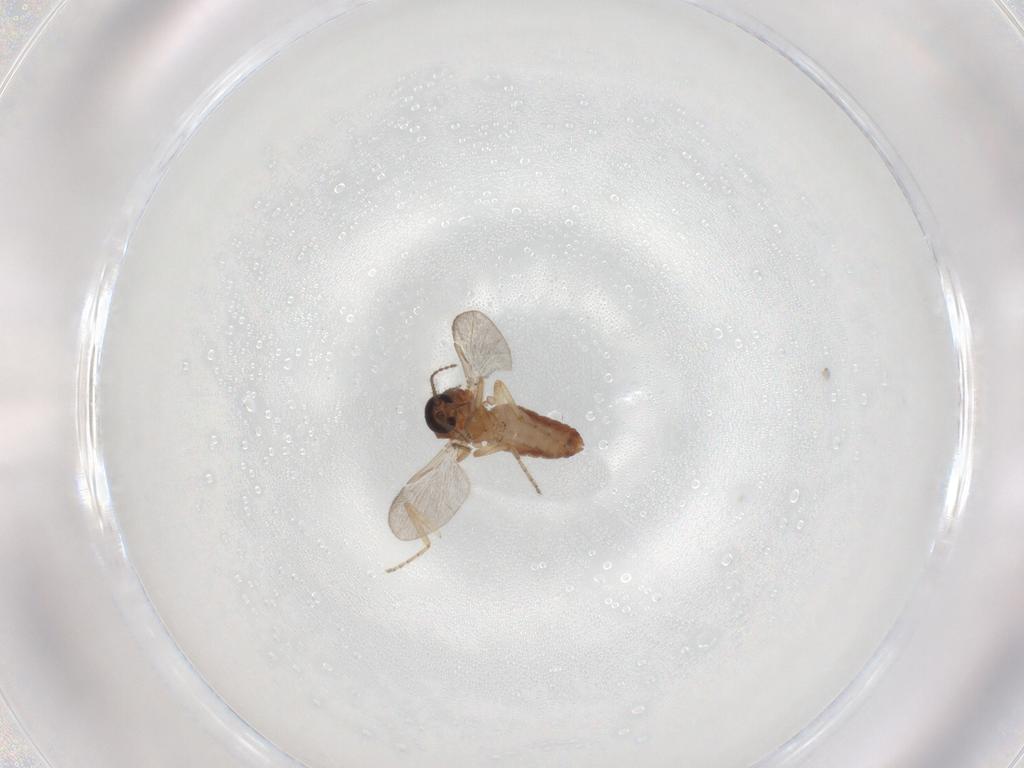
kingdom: Animalia
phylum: Arthropoda
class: Insecta
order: Diptera
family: Ceratopogonidae
